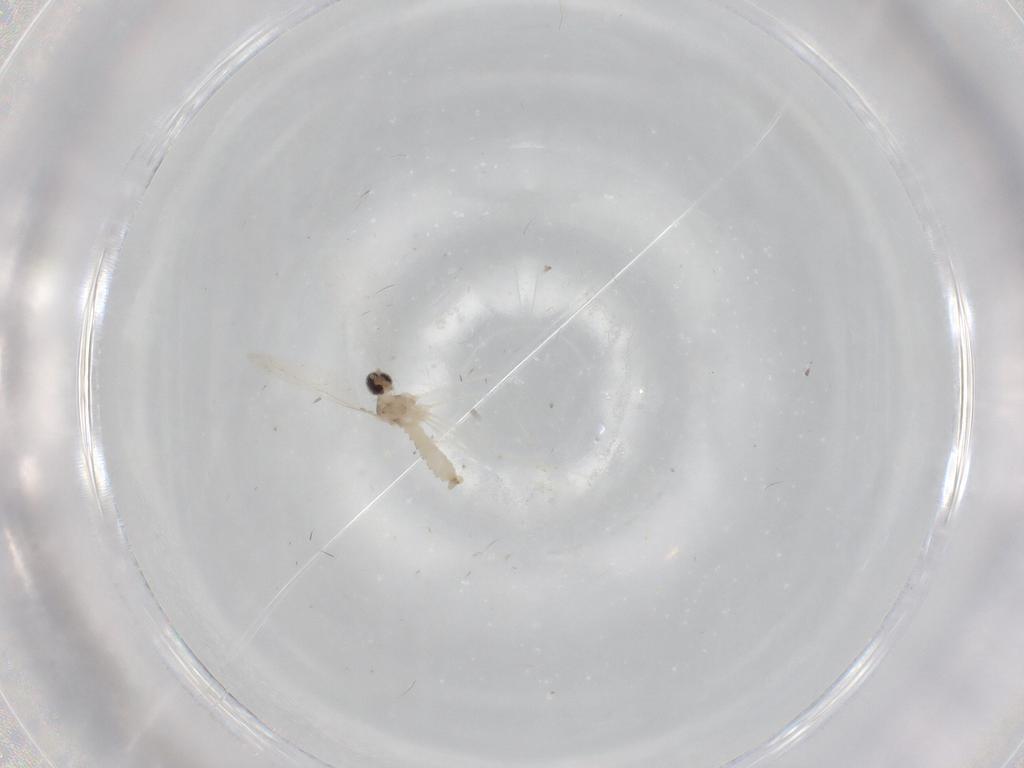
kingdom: Animalia
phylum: Arthropoda
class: Insecta
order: Diptera
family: Cecidomyiidae
